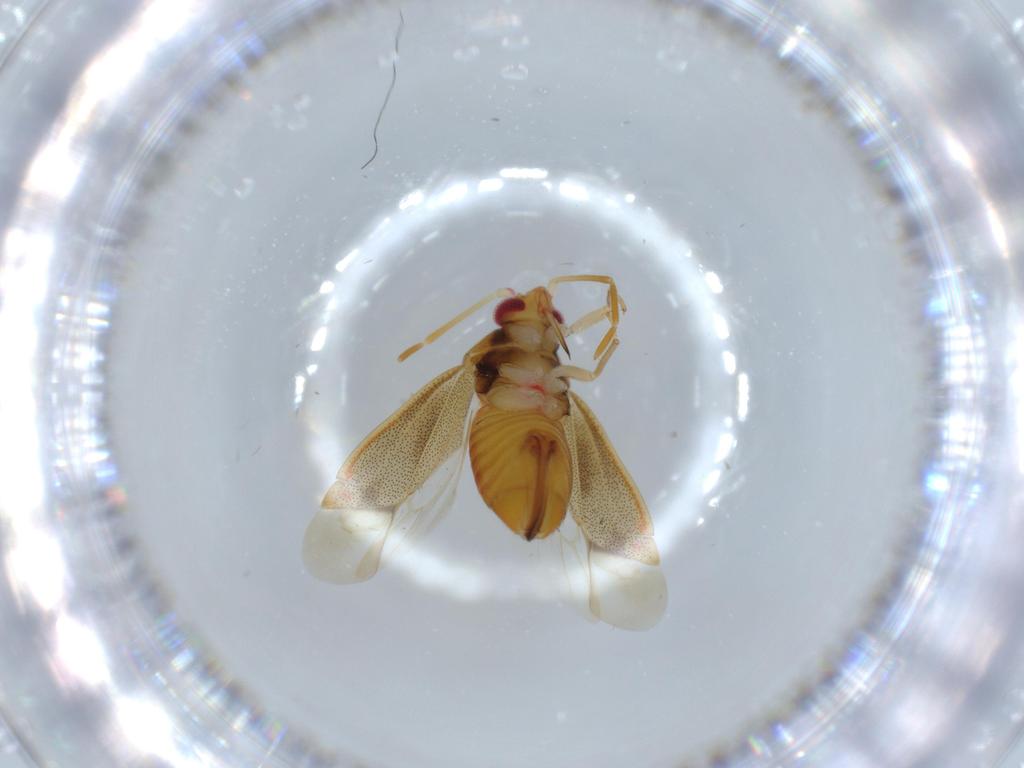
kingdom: Animalia
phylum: Arthropoda
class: Insecta
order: Hemiptera
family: Miridae
